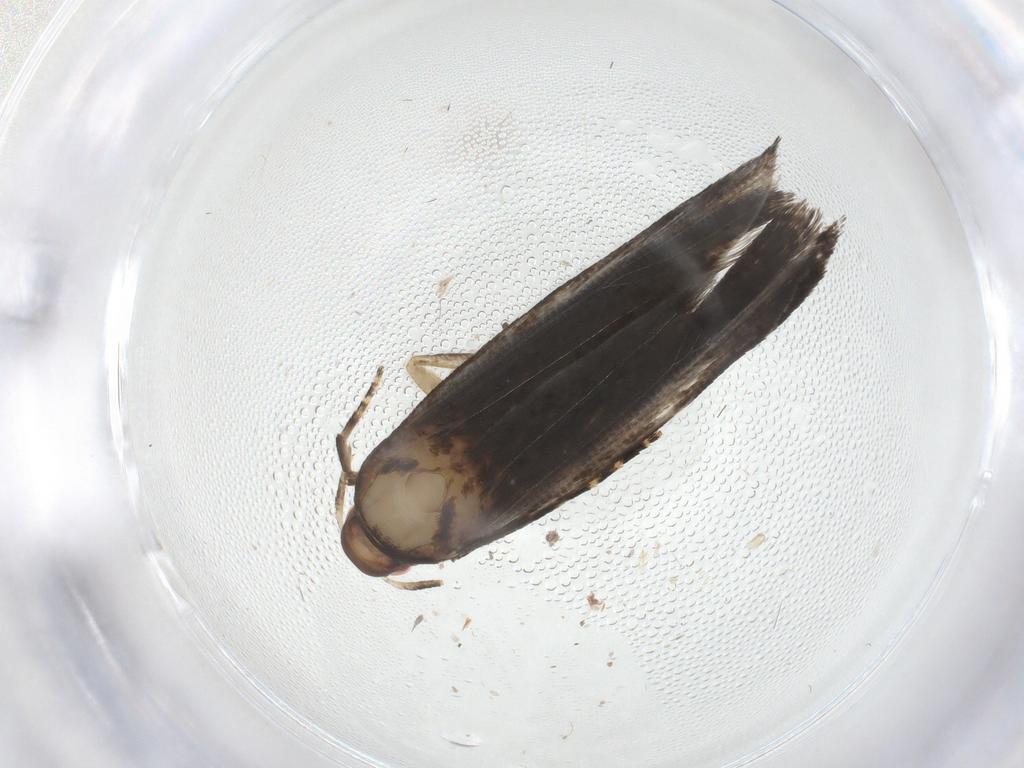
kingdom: Animalia
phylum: Arthropoda
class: Insecta
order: Lepidoptera
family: Gelechiidae
